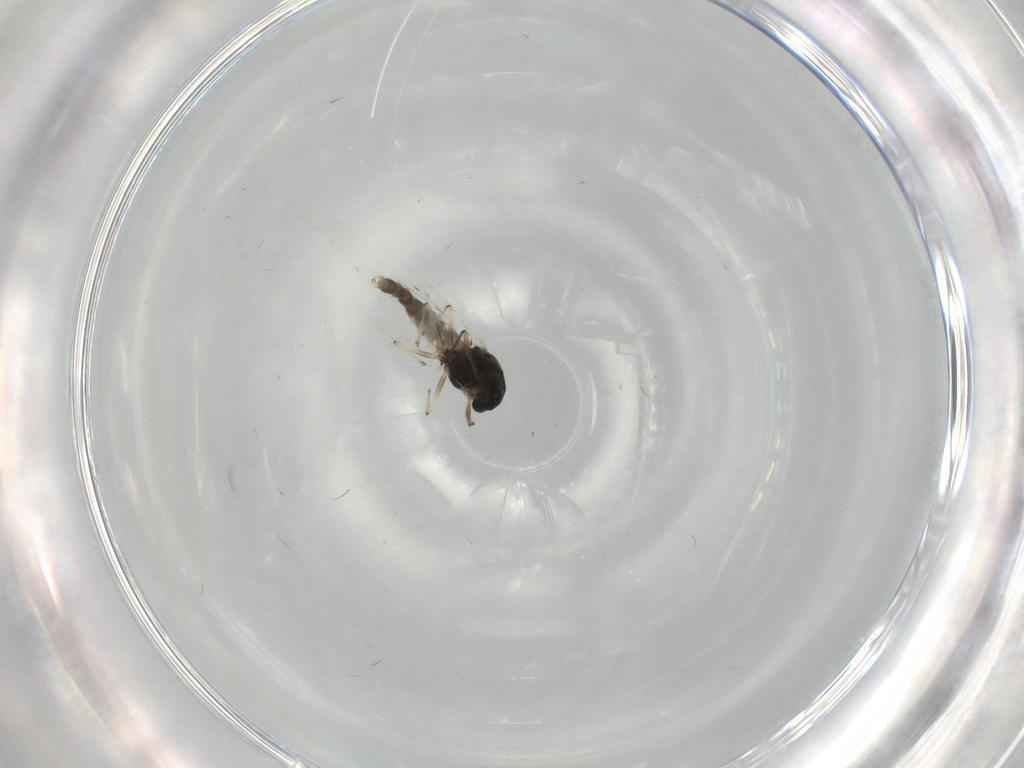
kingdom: Animalia
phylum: Arthropoda
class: Insecta
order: Diptera
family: Chironomidae
